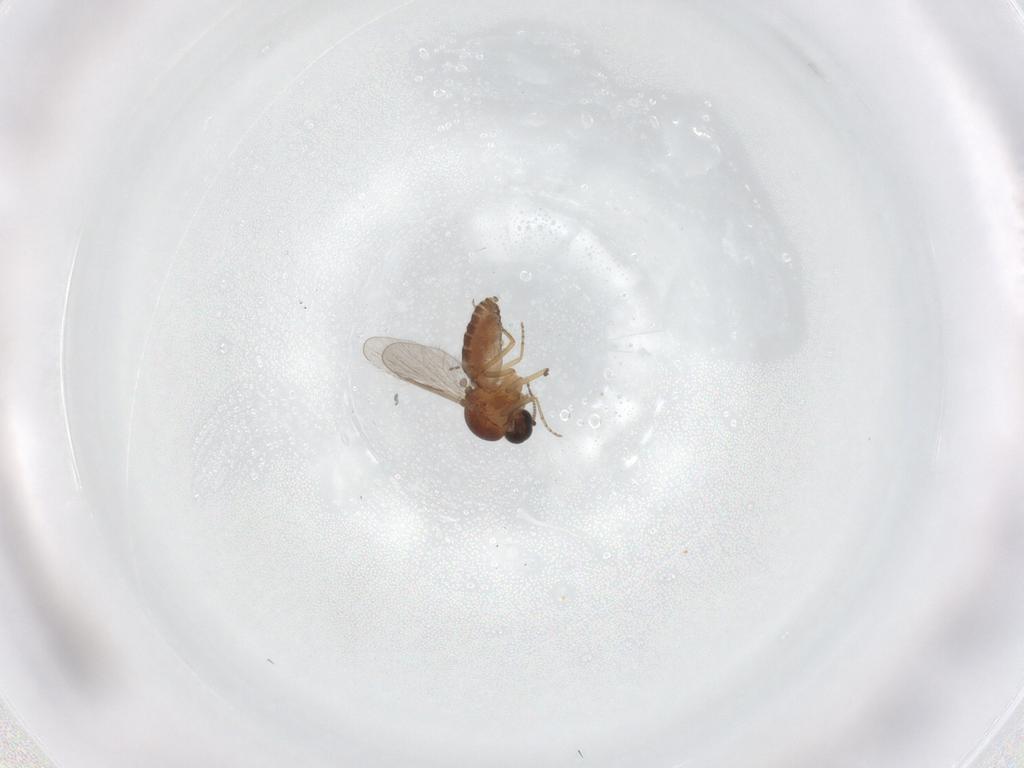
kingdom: Animalia
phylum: Arthropoda
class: Insecta
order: Diptera
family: Ceratopogonidae
